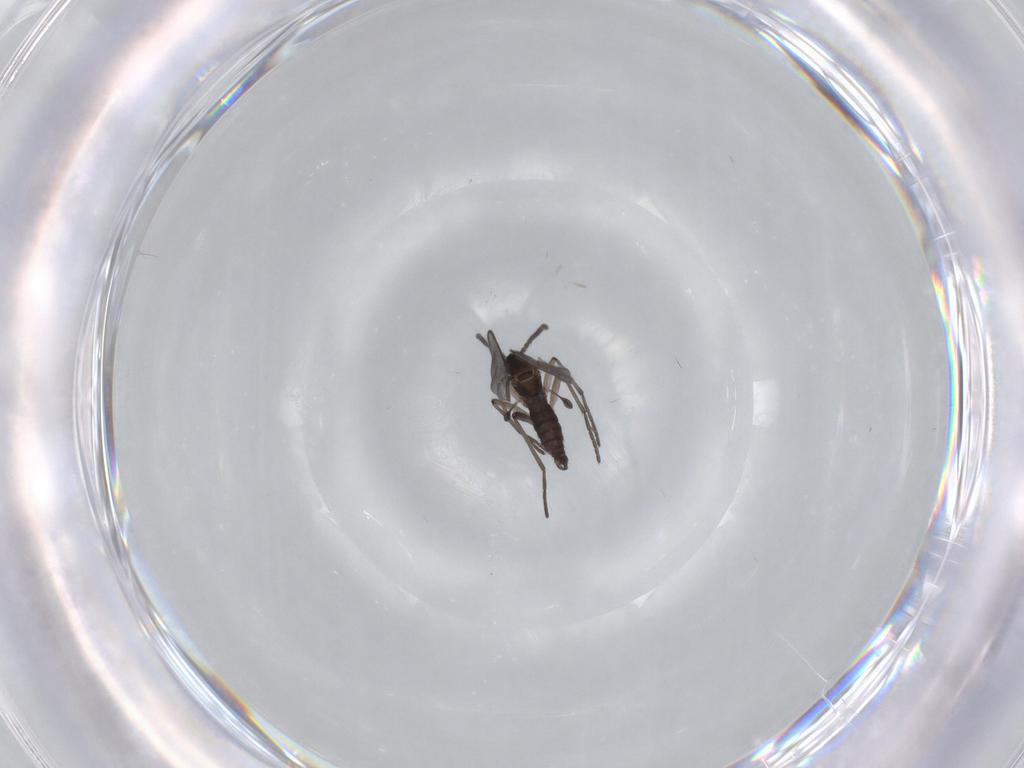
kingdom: Animalia
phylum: Arthropoda
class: Insecta
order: Diptera
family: Sciaridae
